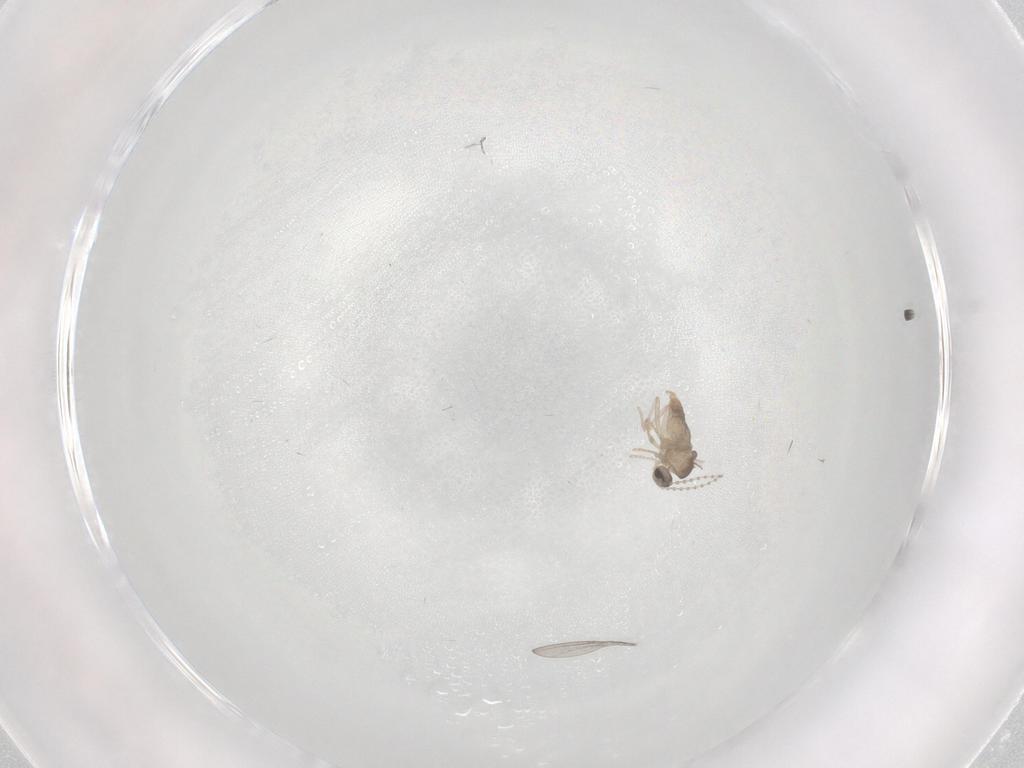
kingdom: Animalia
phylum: Arthropoda
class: Insecta
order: Diptera
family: Cecidomyiidae
